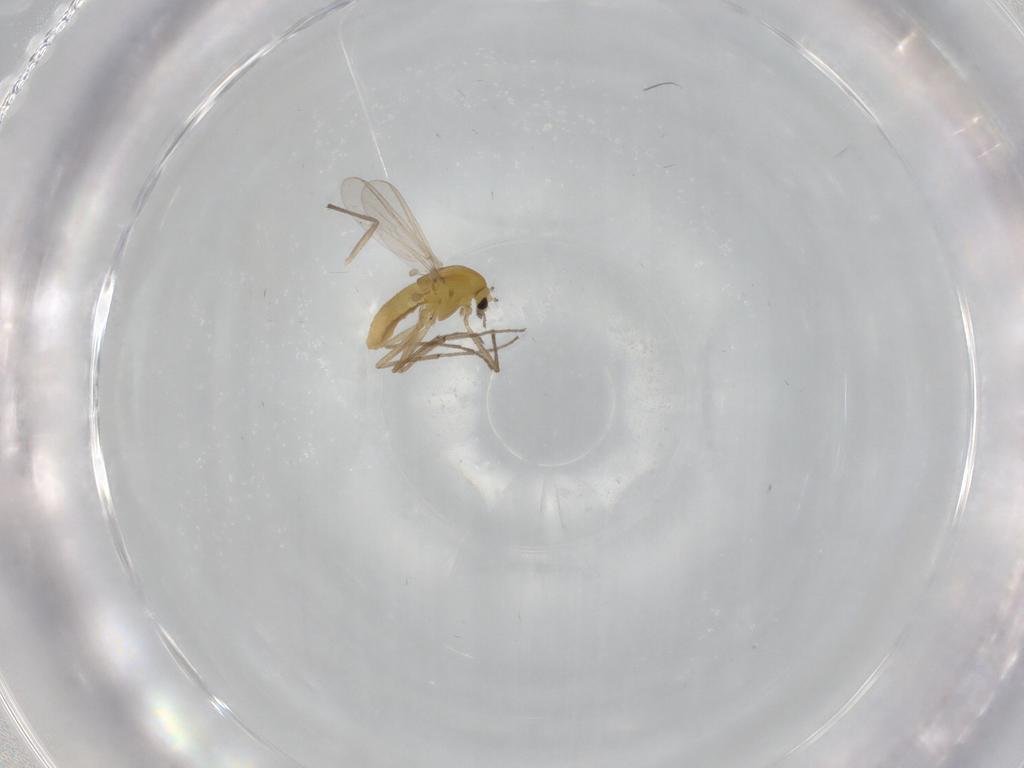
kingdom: Animalia
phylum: Arthropoda
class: Insecta
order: Diptera
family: Chironomidae
